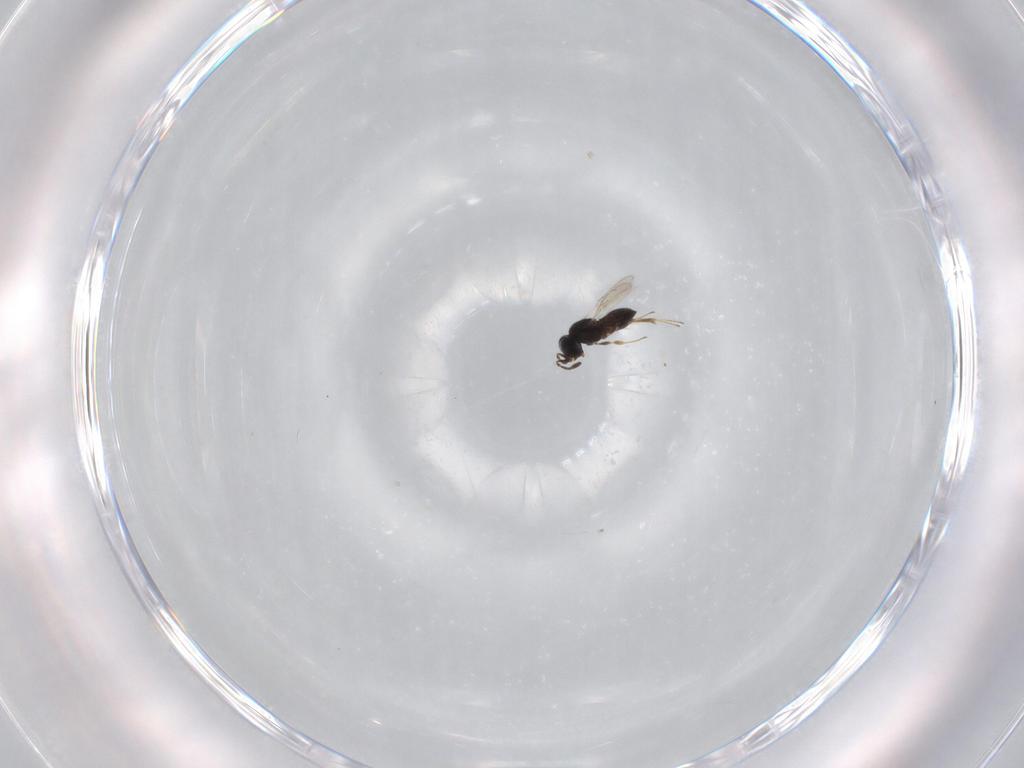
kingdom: Animalia
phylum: Arthropoda
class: Insecta
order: Hymenoptera
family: Scelionidae
